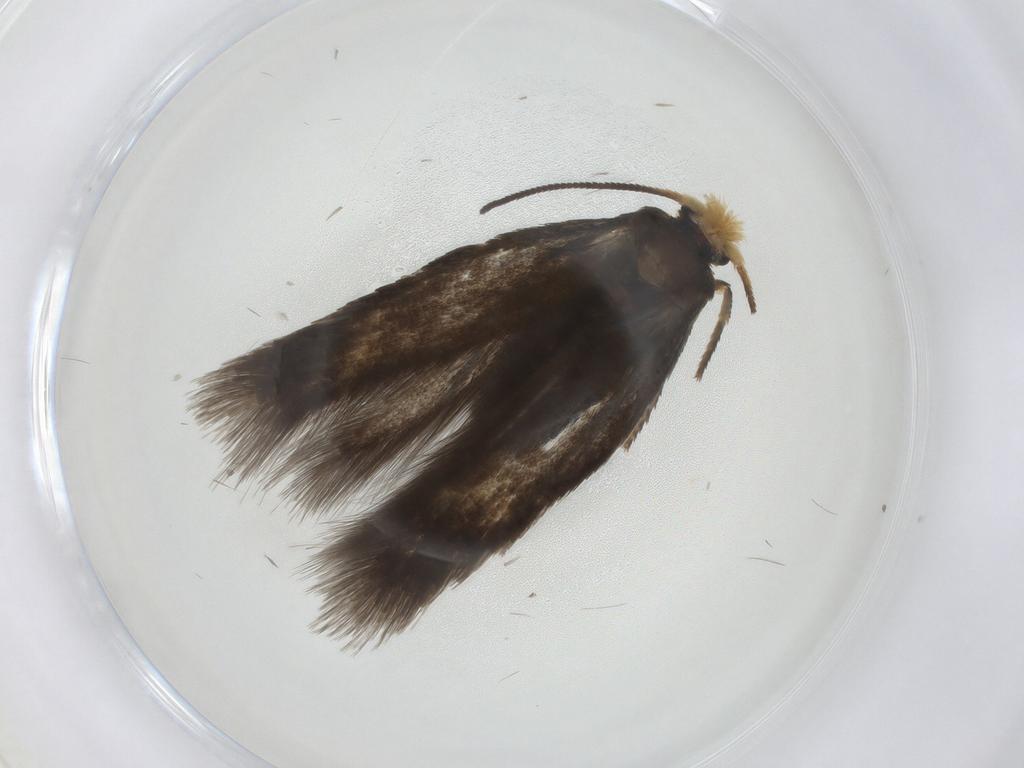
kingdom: Animalia
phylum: Arthropoda
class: Insecta
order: Lepidoptera
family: Nepticulidae
